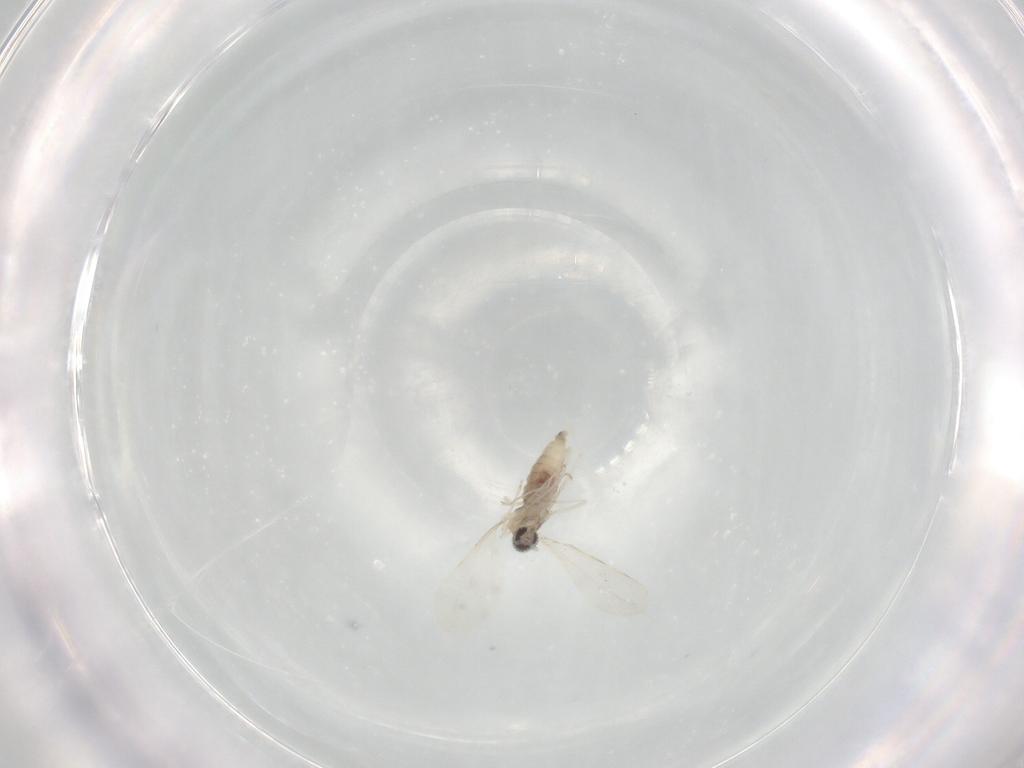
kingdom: Animalia
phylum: Arthropoda
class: Insecta
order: Diptera
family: Cecidomyiidae
